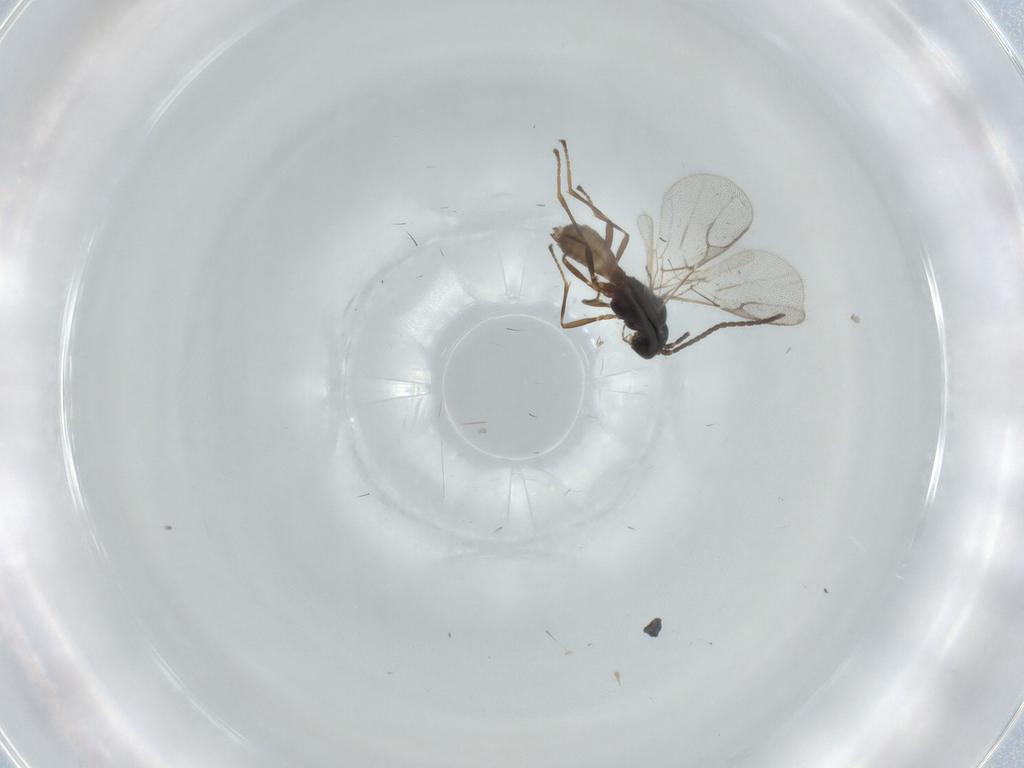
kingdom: Animalia
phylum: Arthropoda
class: Insecta
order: Hymenoptera
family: Braconidae
